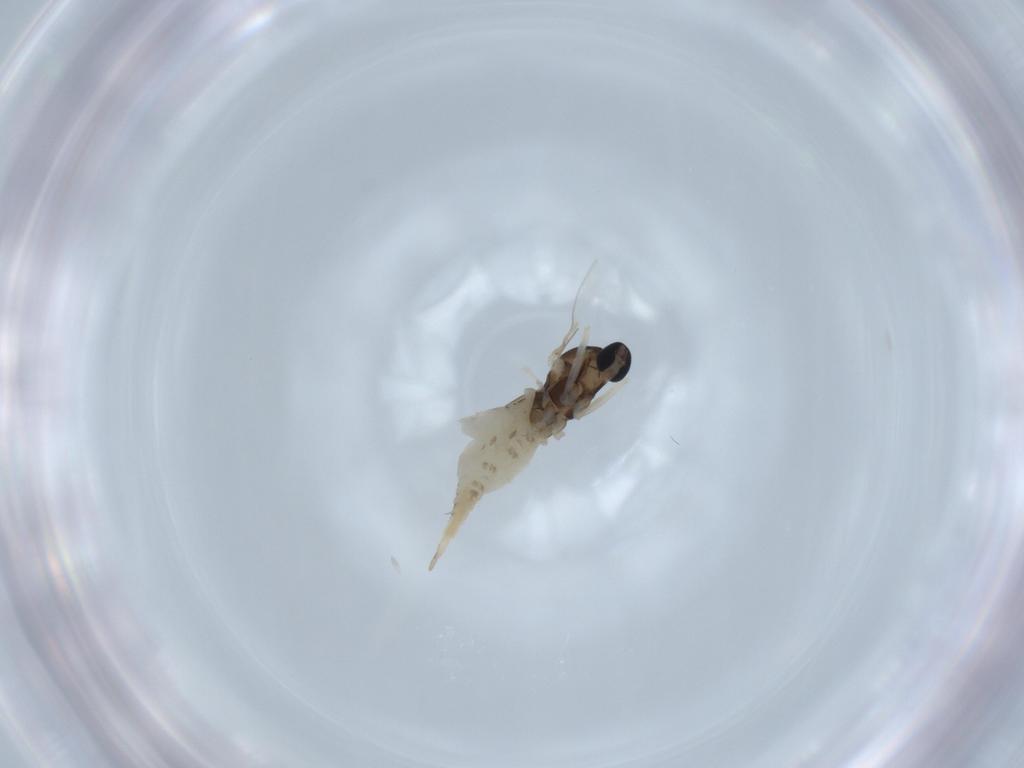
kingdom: Animalia
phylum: Arthropoda
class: Insecta
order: Diptera
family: Cecidomyiidae
